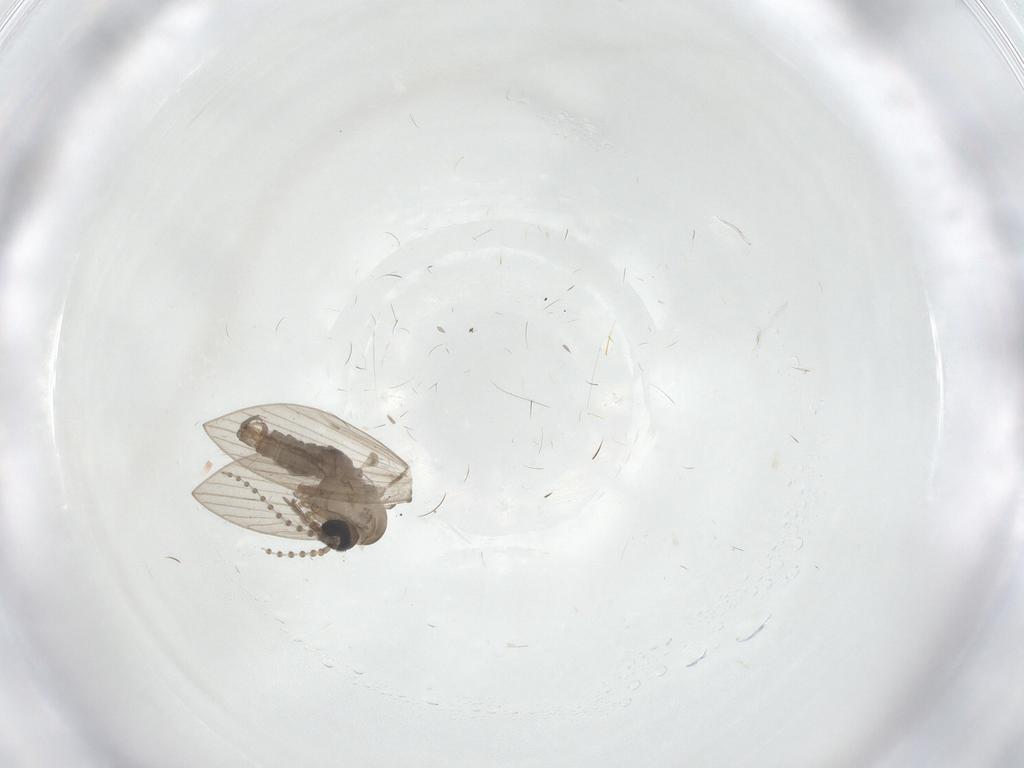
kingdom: Animalia
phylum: Arthropoda
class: Insecta
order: Diptera
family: Psychodidae
